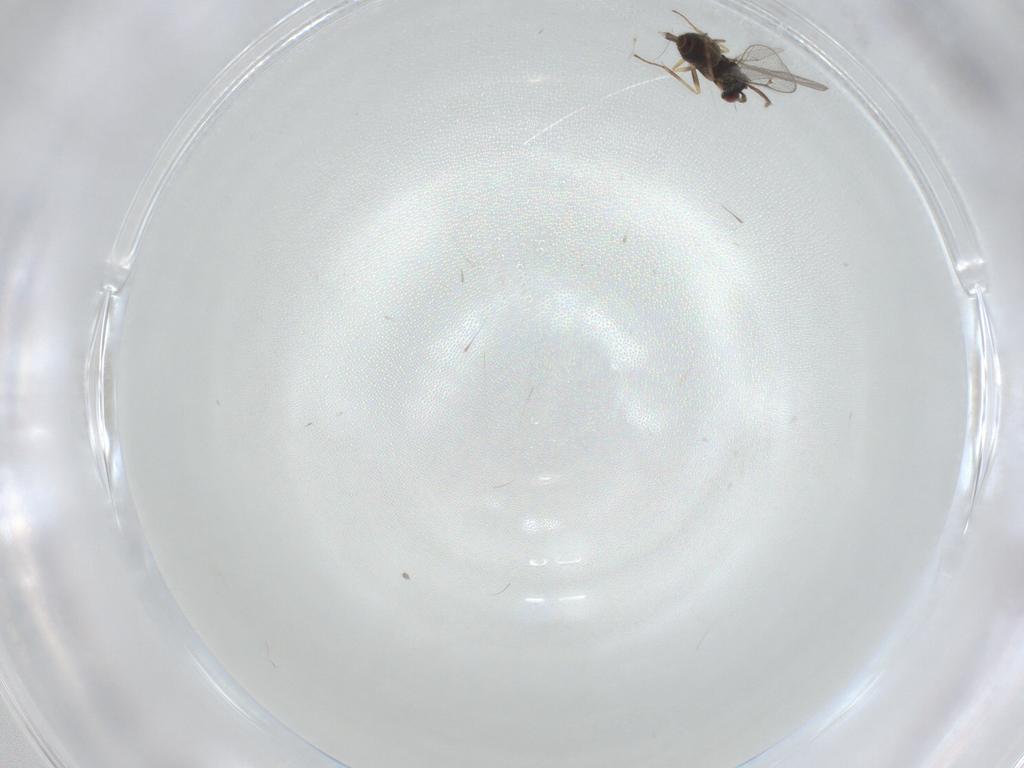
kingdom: Animalia
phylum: Arthropoda
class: Insecta
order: Hymenoptera
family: Eulophidae
